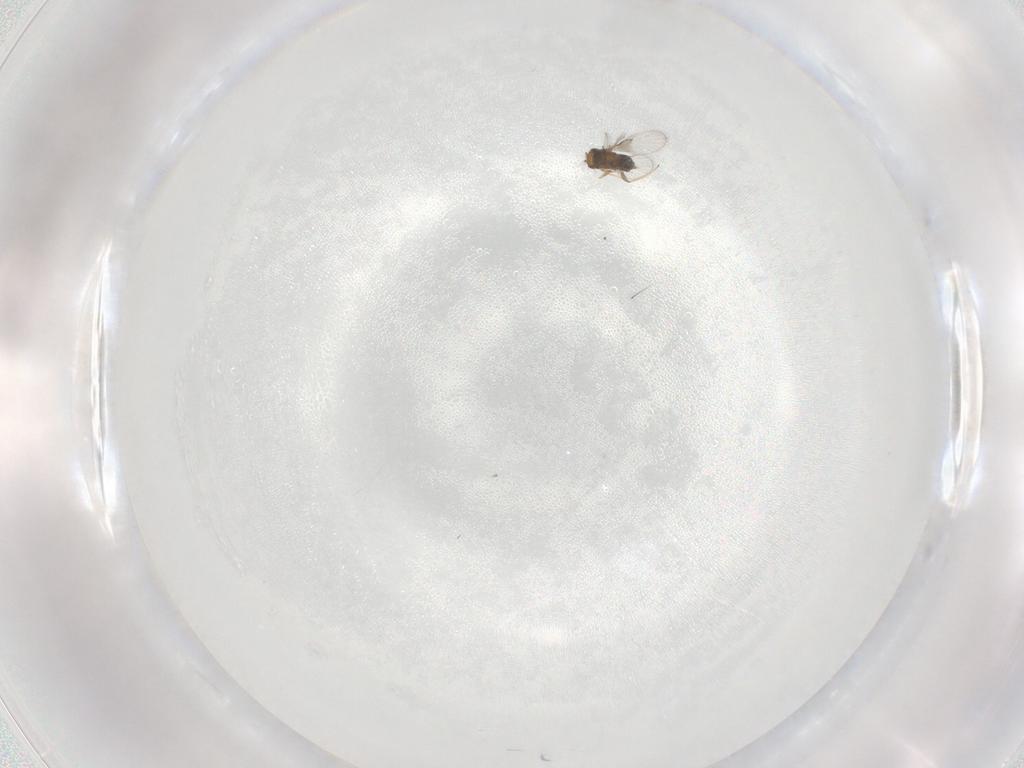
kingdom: Animalia
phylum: Arthropoda
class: Insecta
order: Hymenoptera
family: Trichogrammatidae
